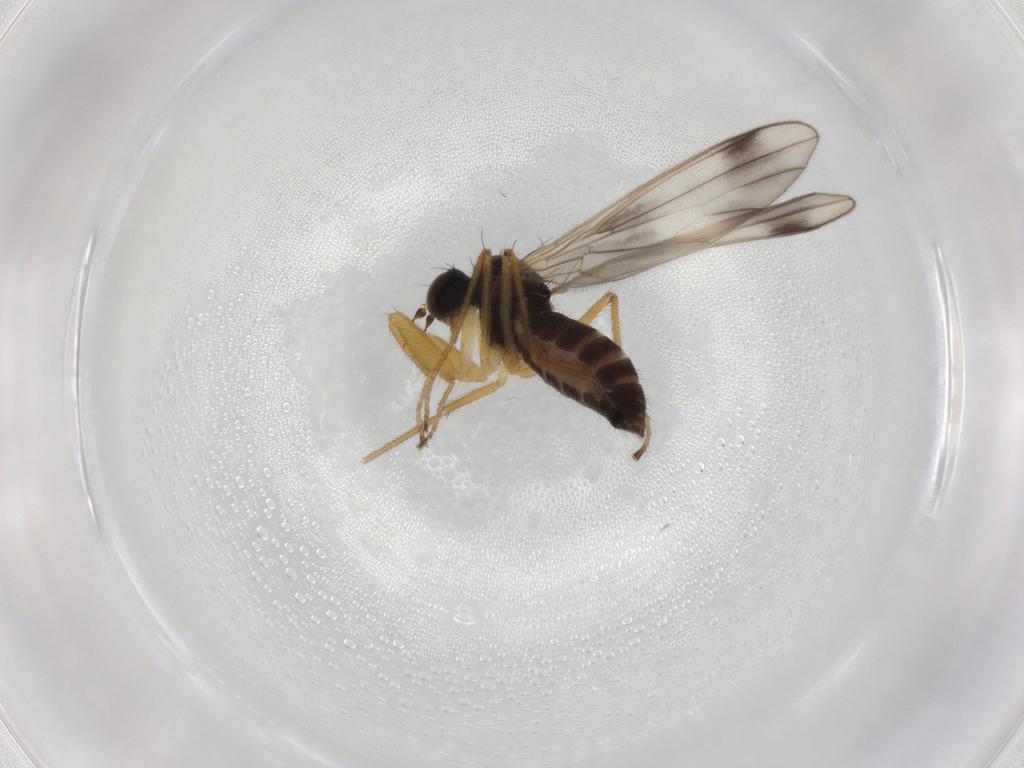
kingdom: Animalia
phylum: Arthropoda
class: Insecta
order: Diptera
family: Empididae
